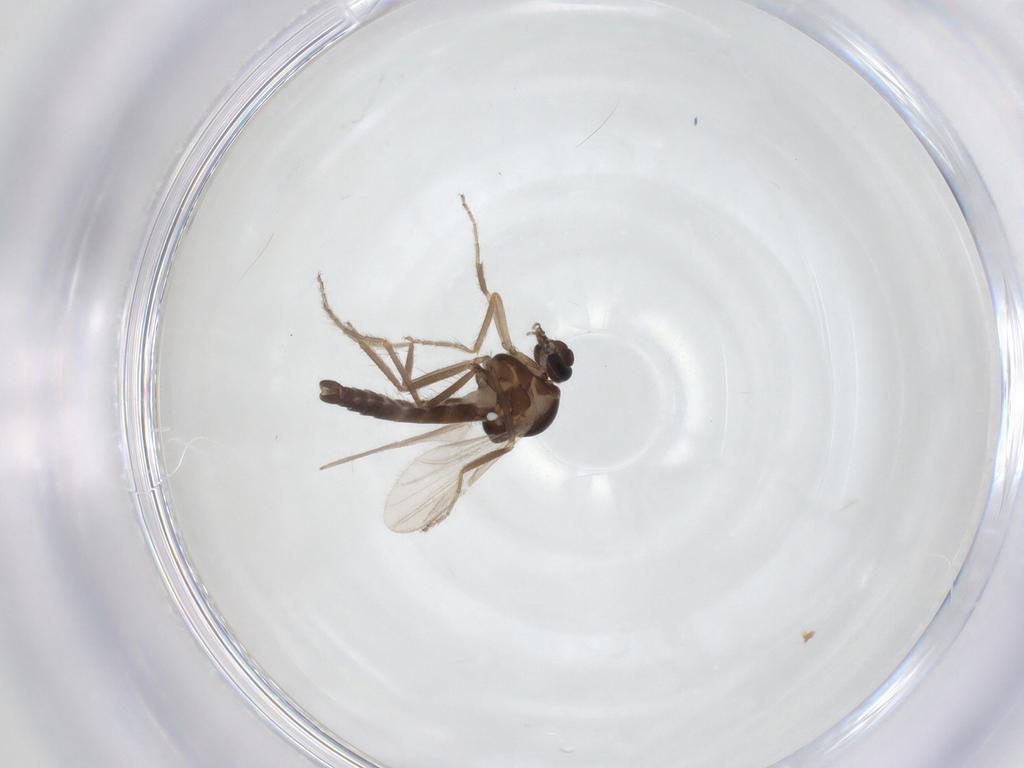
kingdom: Animalia
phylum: Arthropoda
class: Insecta
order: Diptera
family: Ceratopogonidae
